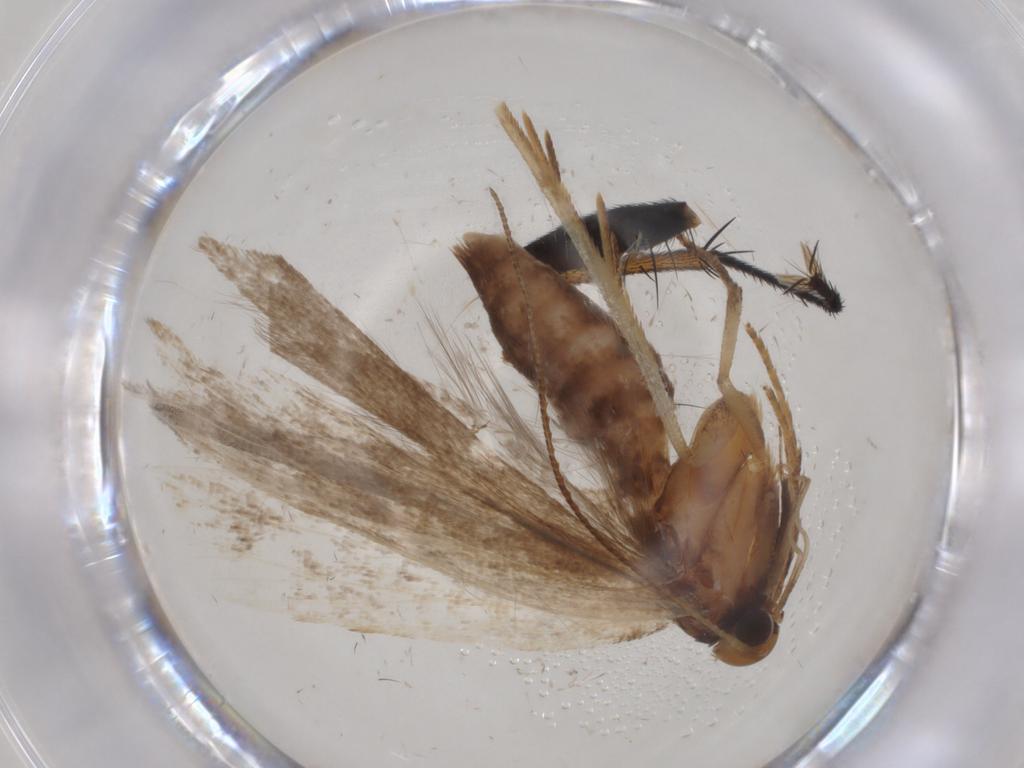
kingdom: Animalia
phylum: Arthropoda
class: Insecta
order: Lepidoptera
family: Gelechiidae
